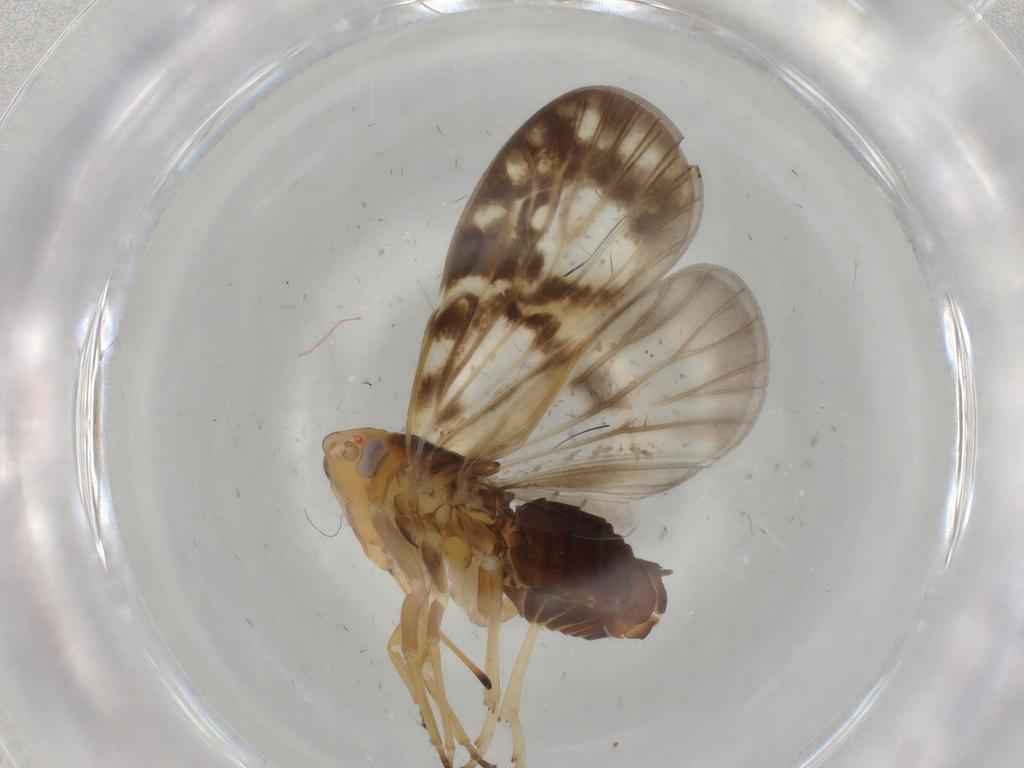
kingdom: Animalia
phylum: Arthropoda
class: Insecta
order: Hemiptera
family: Cixiidae
